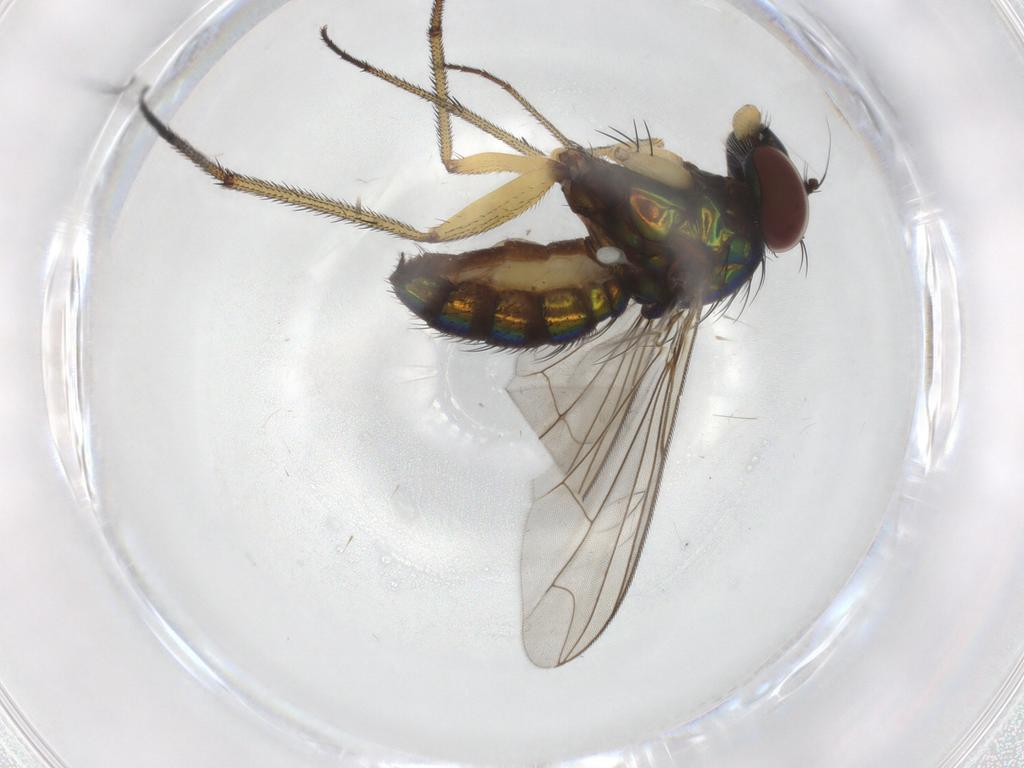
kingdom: Animalia
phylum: Arthropoda
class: Insecta
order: Diptera
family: Dolichopodidae
